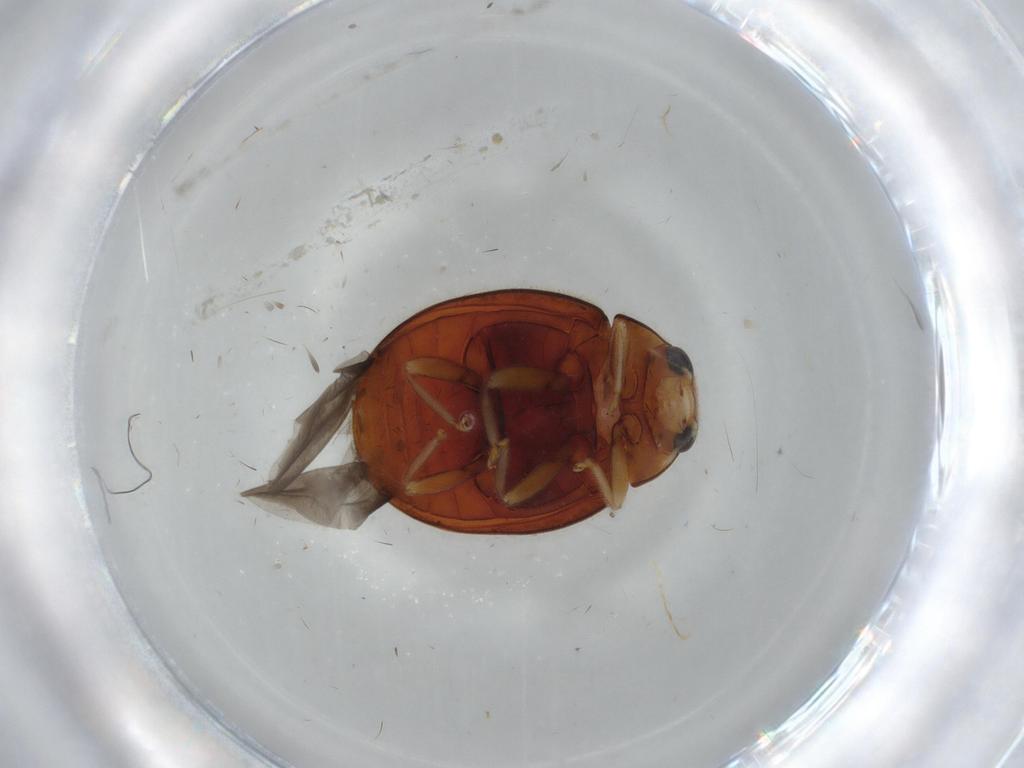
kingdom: Animalia
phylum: Arthropoda
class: Insecta
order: Coleoptera
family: Coccinellidae
